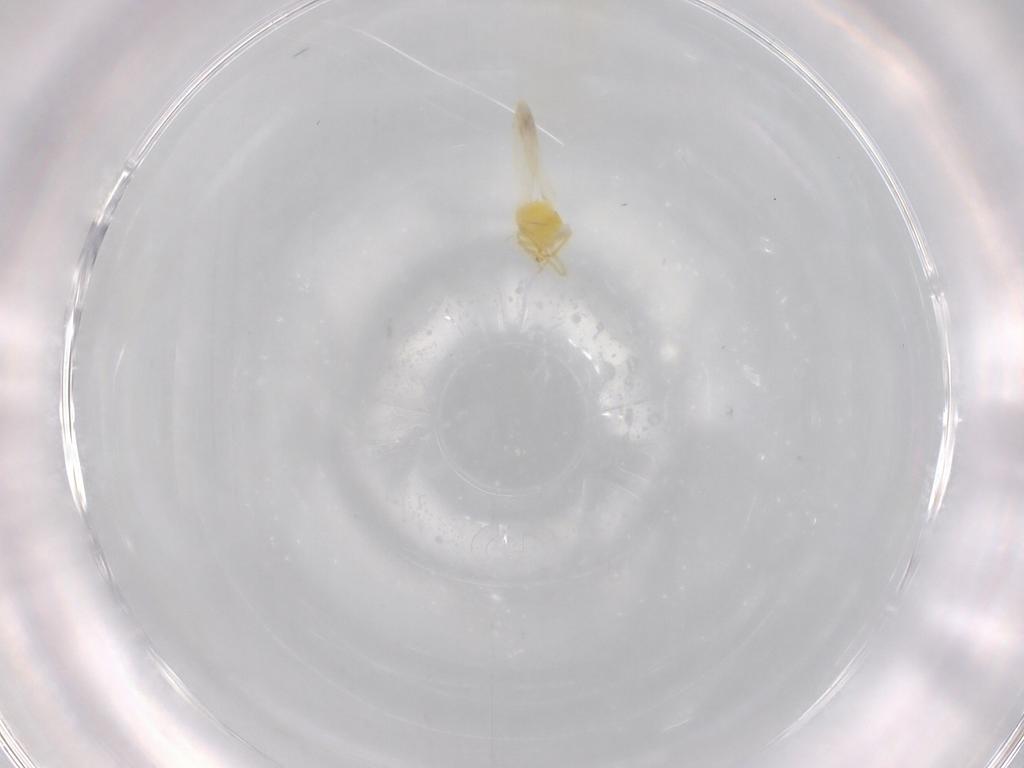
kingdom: Animalia
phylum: Arthropoda
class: Insecta
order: Hemiptera
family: Aleyrodidae
